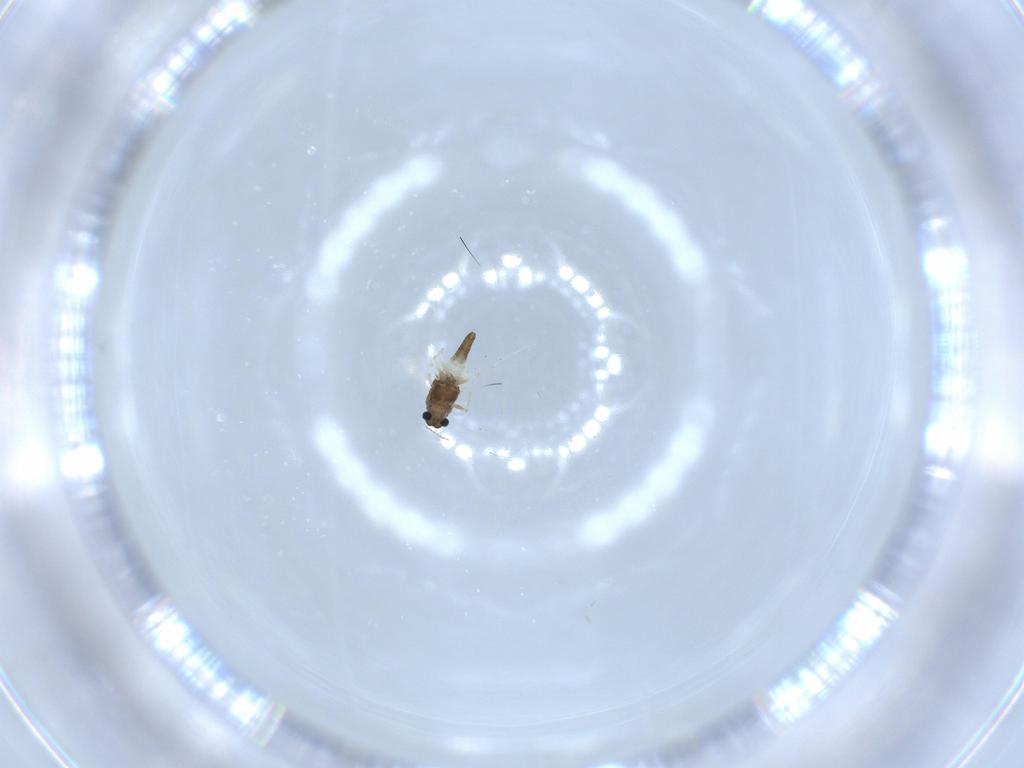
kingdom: Animalia
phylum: Arthropoda
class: Insecta
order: Diptera
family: Chironomidae
